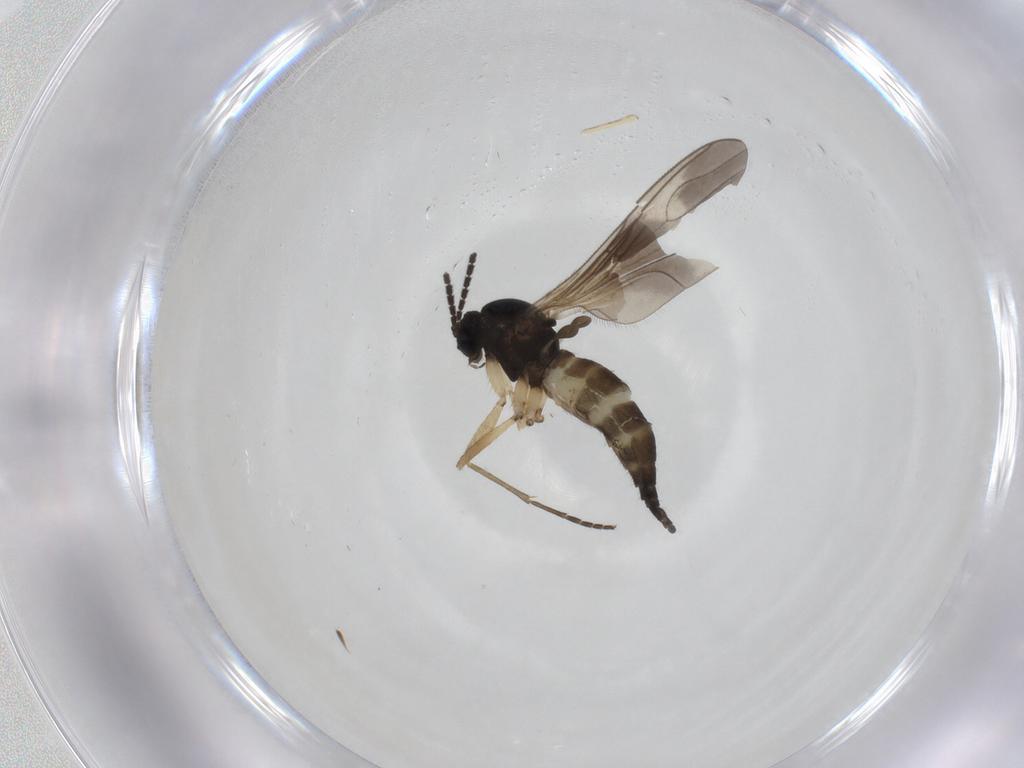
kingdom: Animalia
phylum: Arthropoda
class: Insecta
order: Diptera
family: Sciaridae
